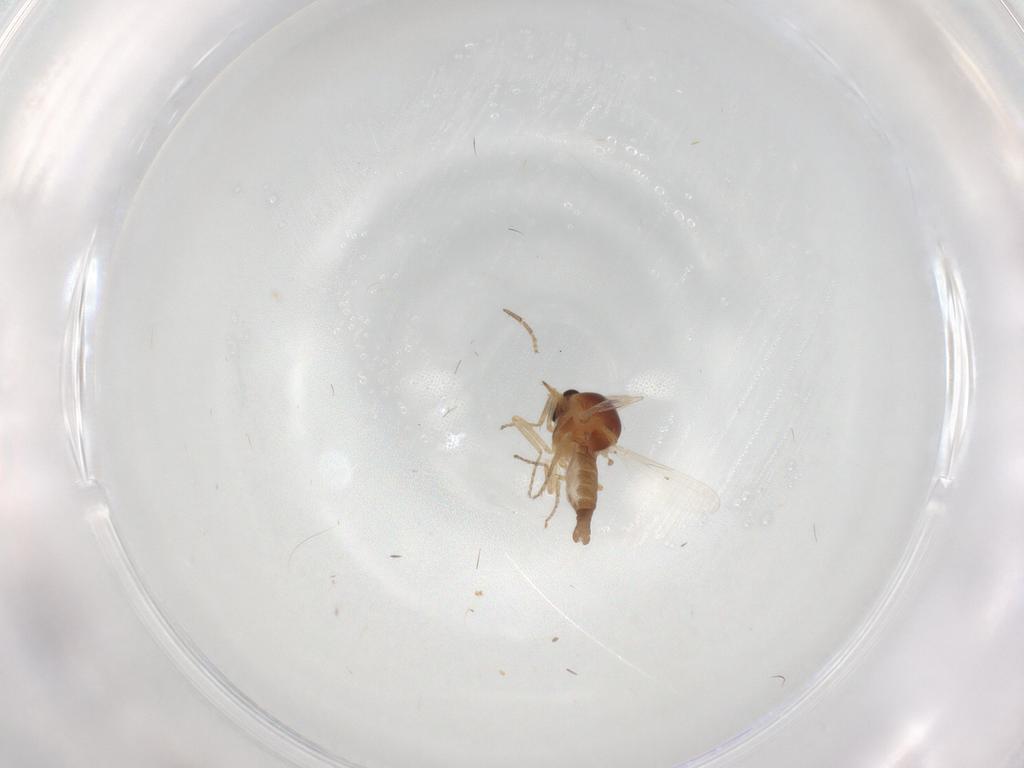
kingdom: Animalia
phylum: Arthropoda
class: Insecta
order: Diptera
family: Ceratopogonidae
